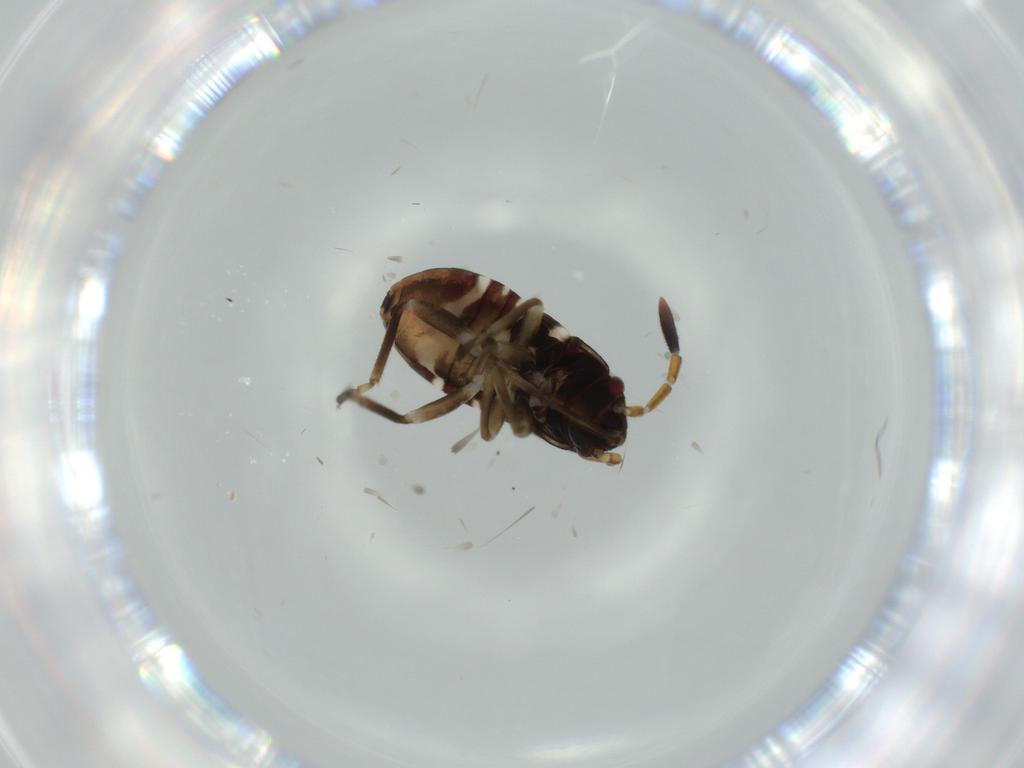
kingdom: Animalia
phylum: Arthropoda
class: Insecta
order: Hemiptera
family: Rhyparochromidae
